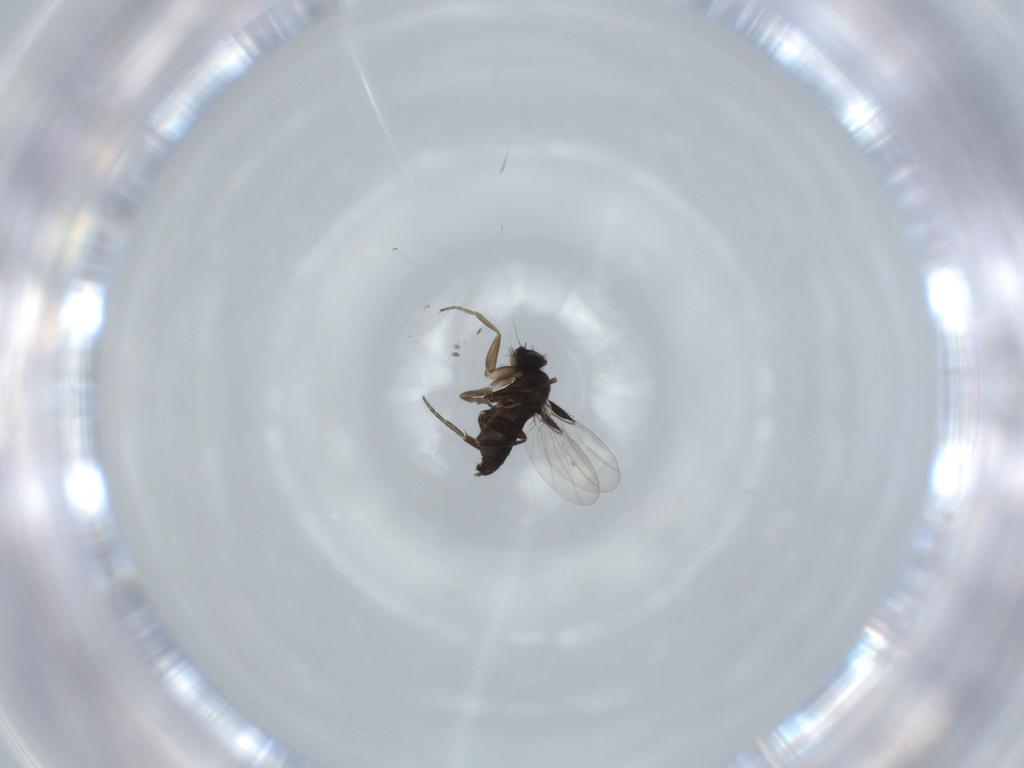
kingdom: Animalia
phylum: Arthropoda
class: Insecta
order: Diptera
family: Phoridae
